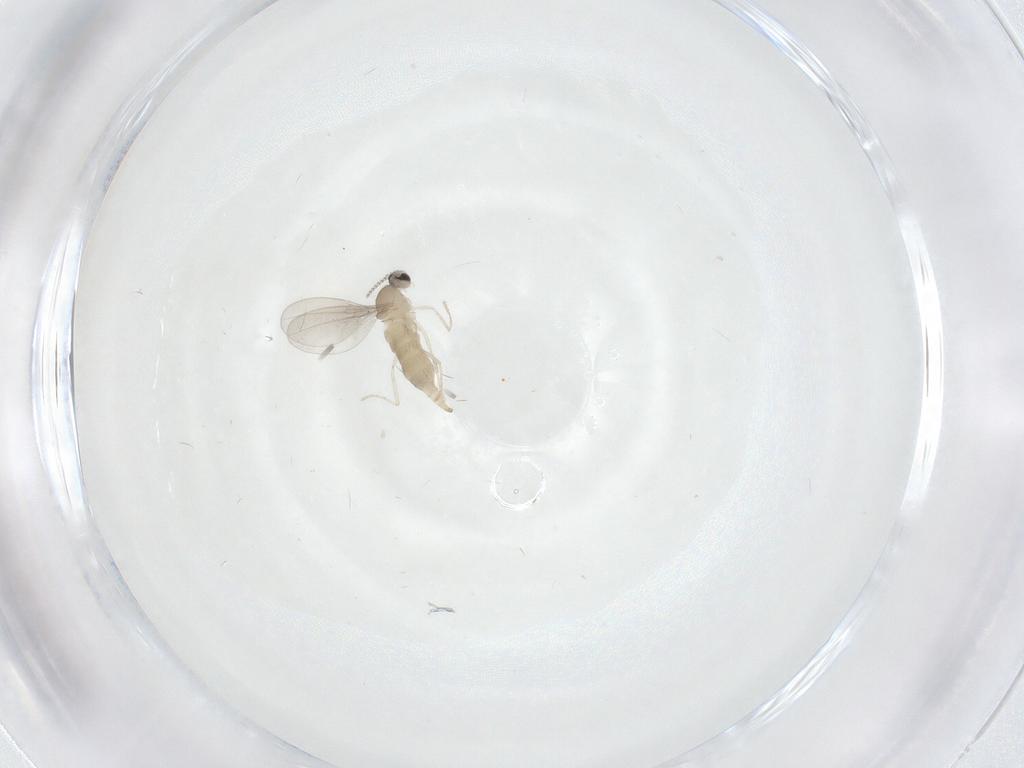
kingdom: Animalia
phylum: Arthropoda
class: Insecta
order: Diptera
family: Cecidomyiidae
